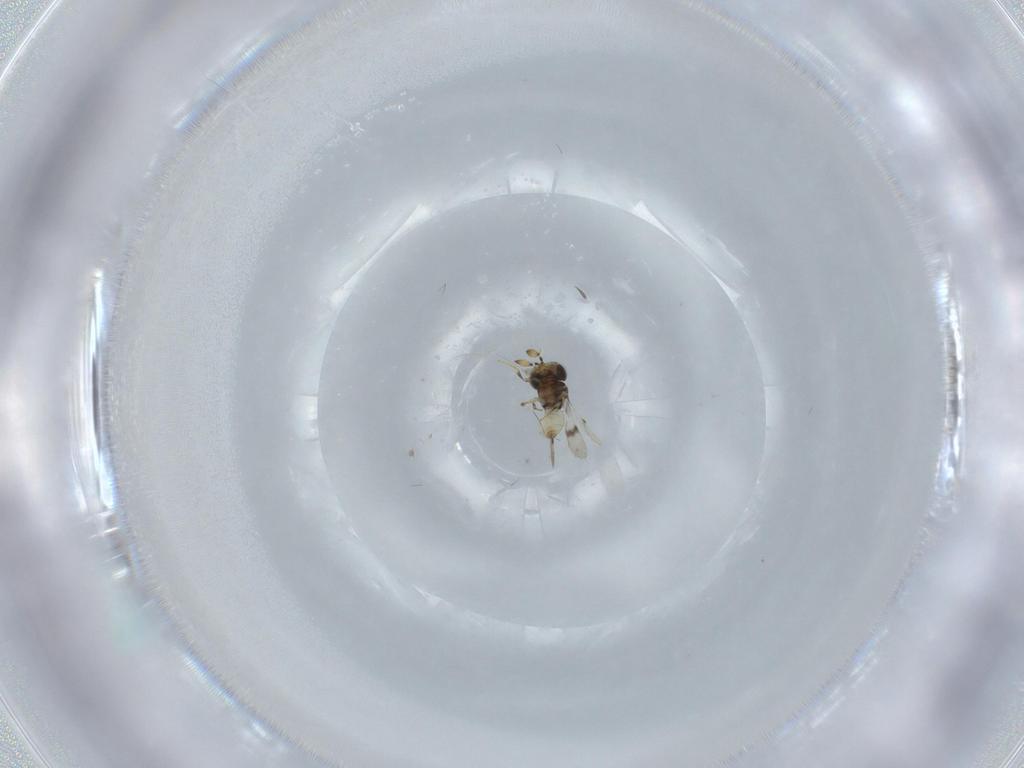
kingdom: Animalia
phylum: Arthropoda
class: Insecta
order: Hymenoptera
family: Scelionidae
